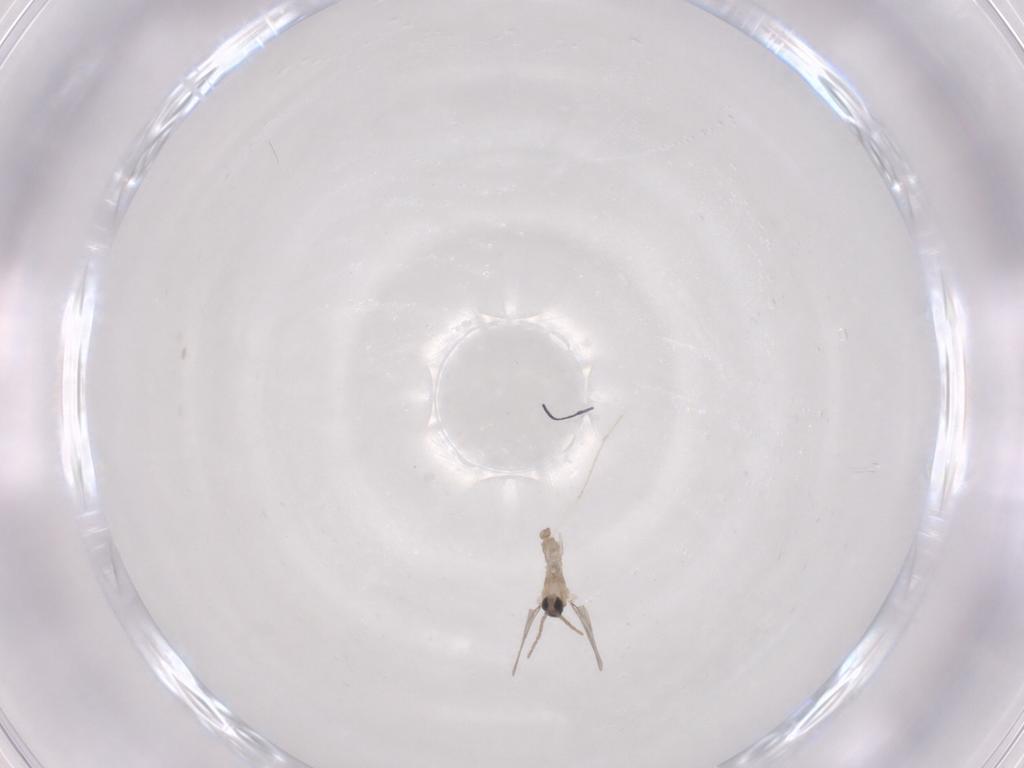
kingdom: Animalia
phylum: Arthropoda
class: Insecta
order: Diptera
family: Cecidomyiidae
